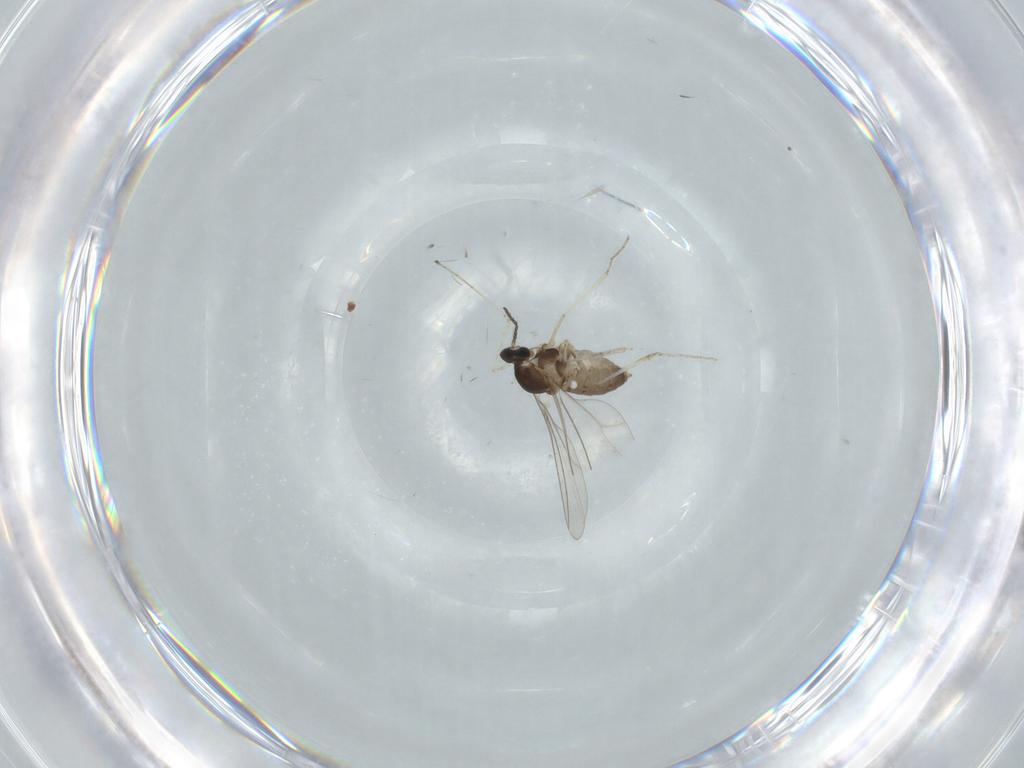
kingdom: Animalia
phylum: Arthropoda
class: Insecta
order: Diptera
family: Cecidomyiidae
